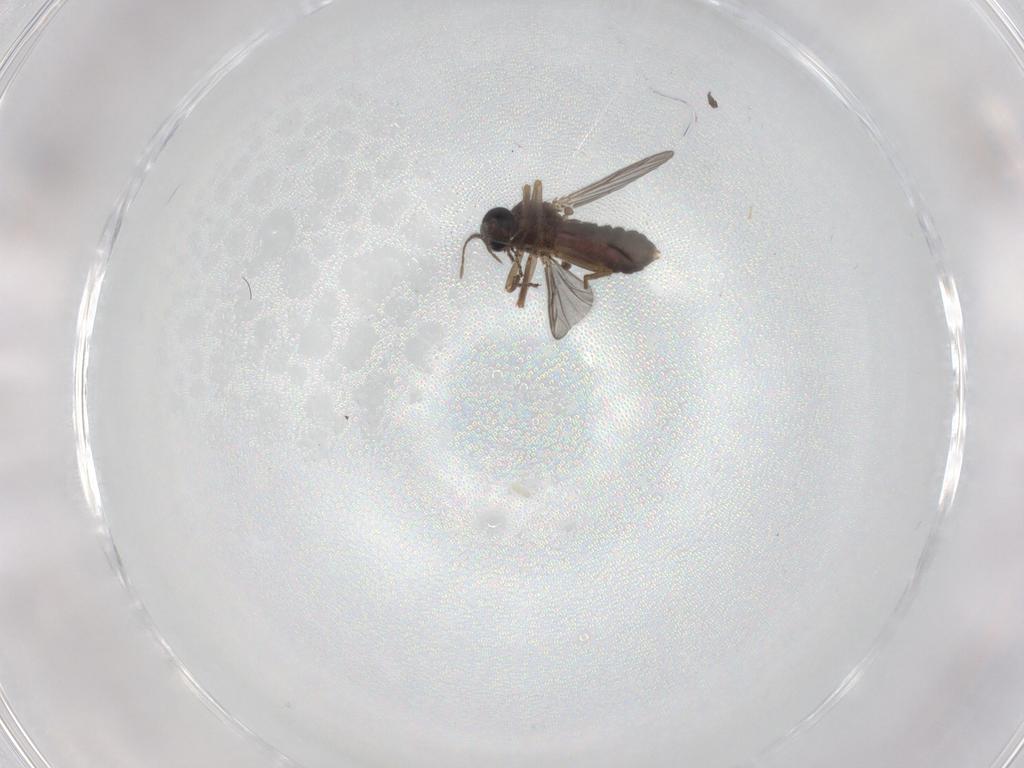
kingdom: Animalia
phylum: Arthropoda
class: Insecta
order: Diptera
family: Ceratopogonidae
